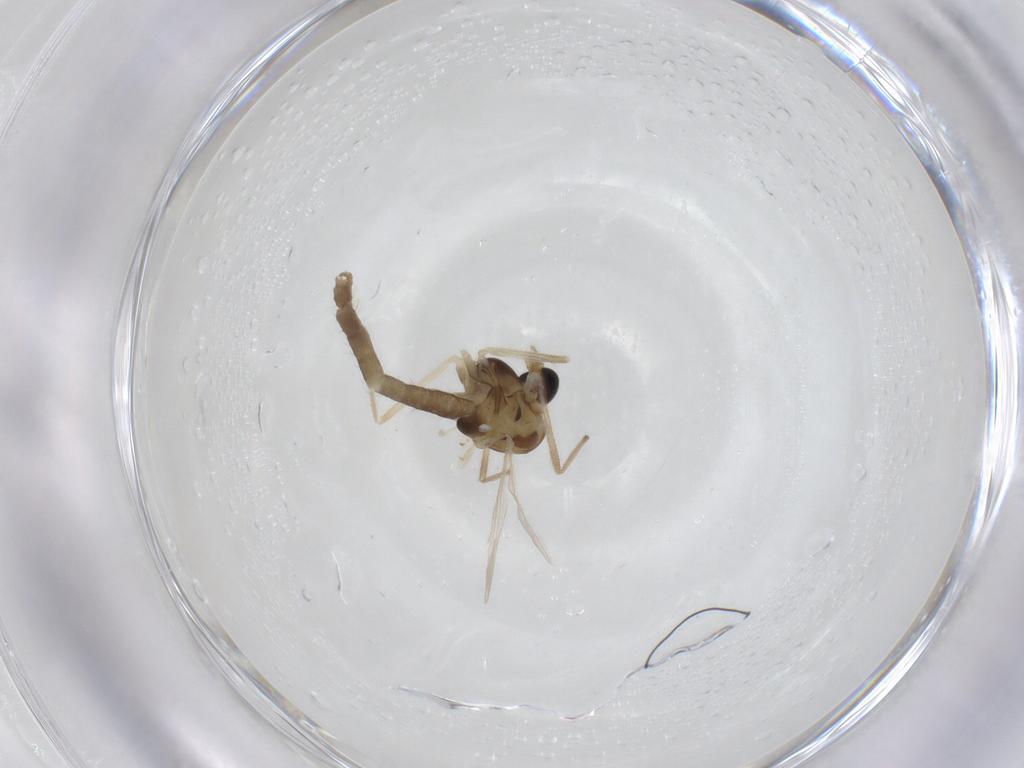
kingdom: Animalia
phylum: Arthropoda
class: Insecta
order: Diptera
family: Chironomidae
